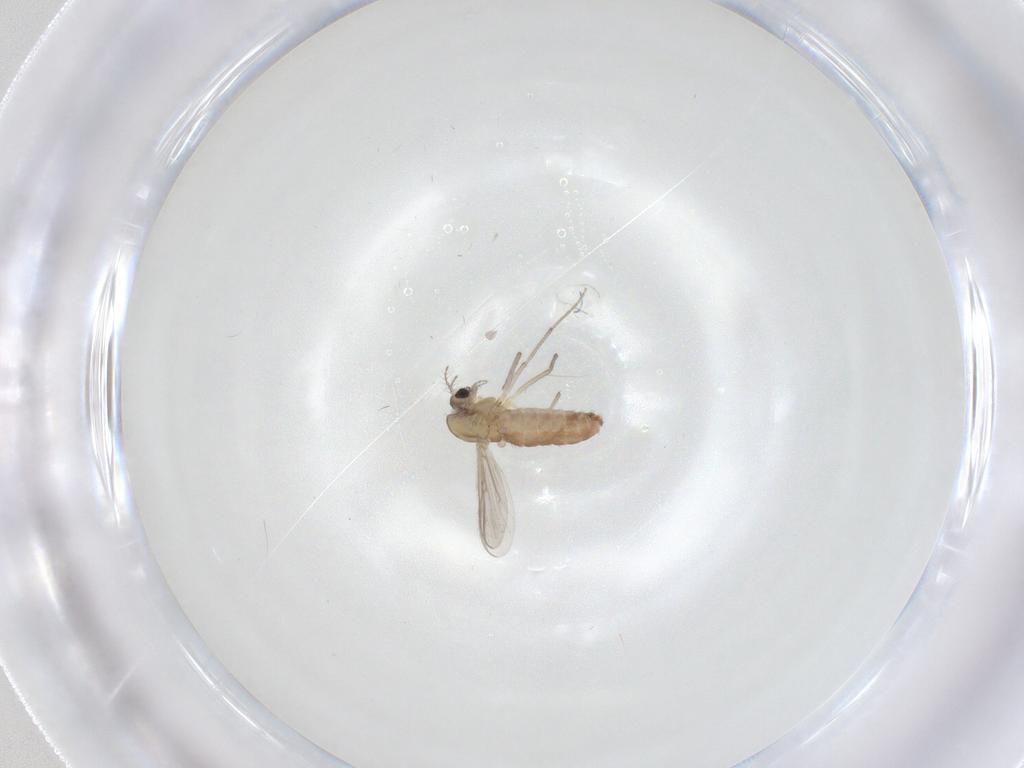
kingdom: Animalia
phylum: Arthropoda
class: Insecta
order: Diptera
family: Chironomidae
